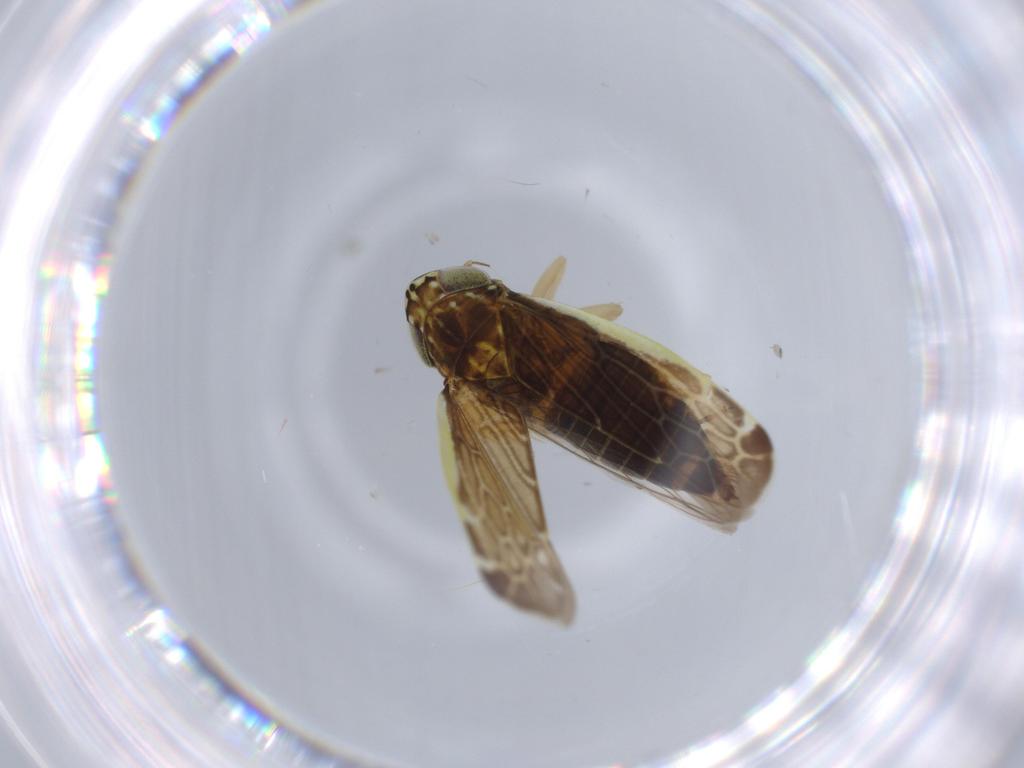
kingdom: Animalia
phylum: Arthropoda
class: Insecta
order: Hemiptera
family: Cicadellidae
